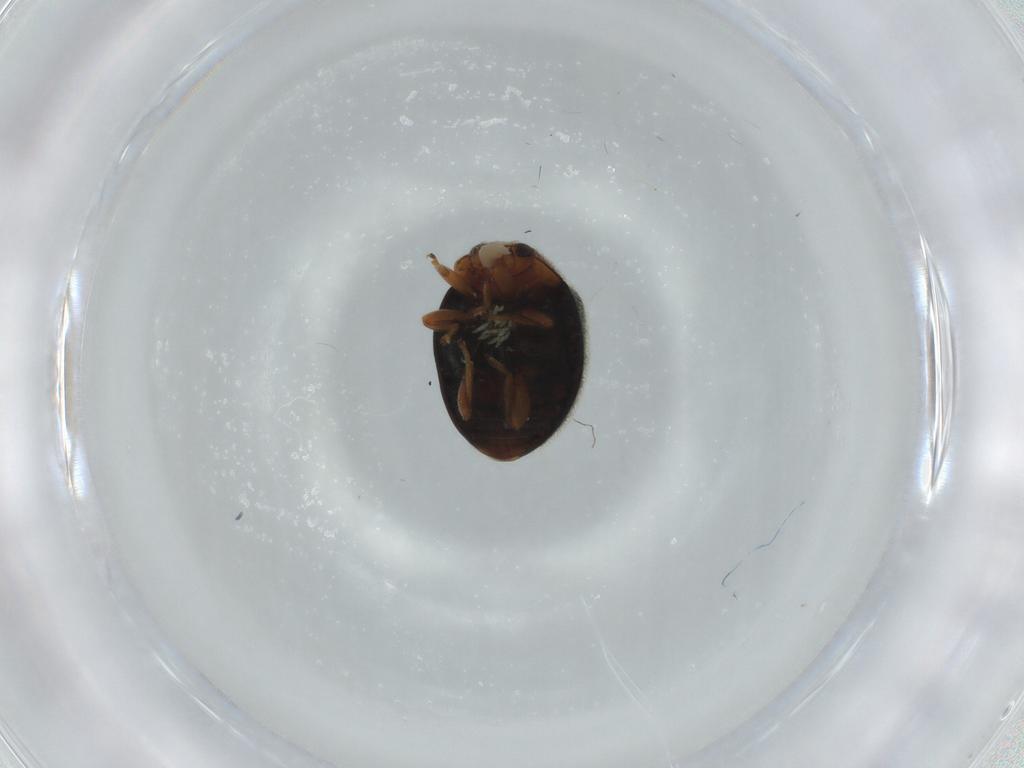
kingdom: Animalia
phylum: Arthropoda
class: Insecta
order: Coleoptera
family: Coccinellidae
